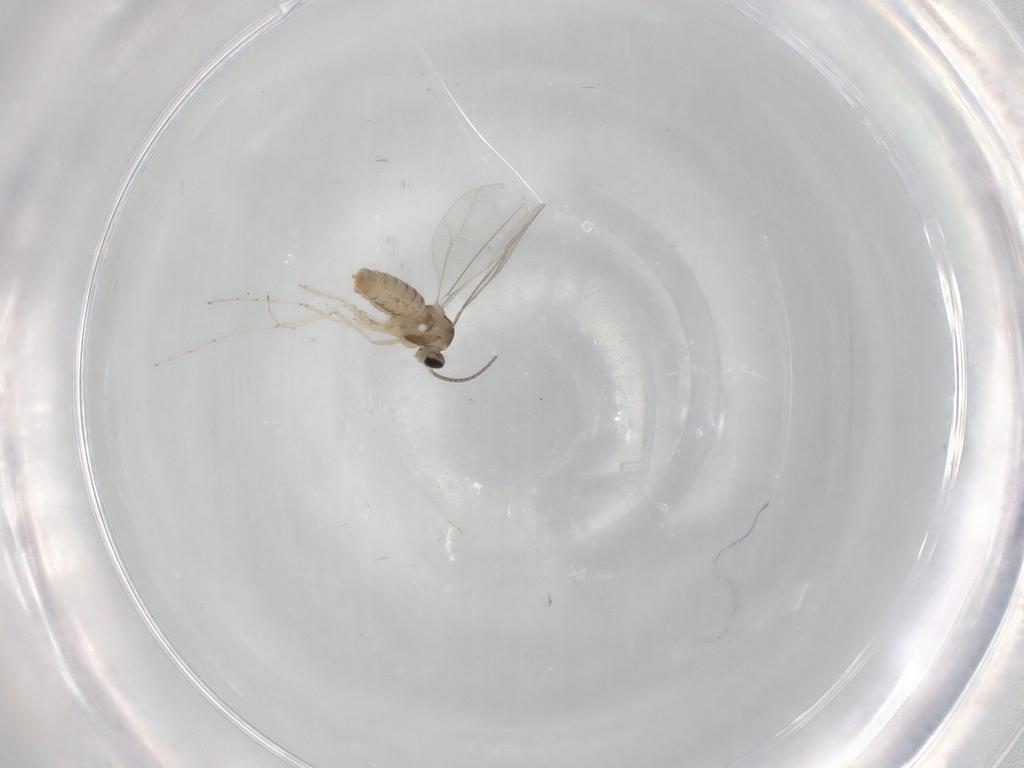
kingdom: Animalia
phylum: Arthropoda
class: Insecta
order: Diptera
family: Cecidomyiidae
